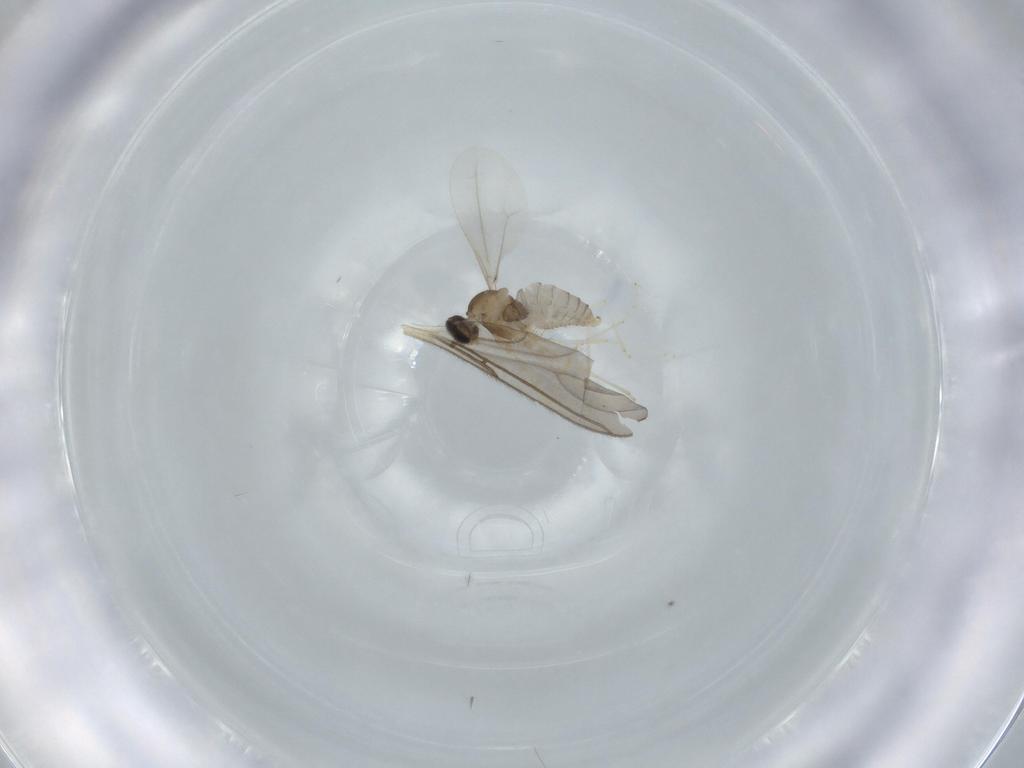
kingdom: Animalia
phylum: Arthropoda
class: Insecta
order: Diptera
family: Cecidomyiidae
